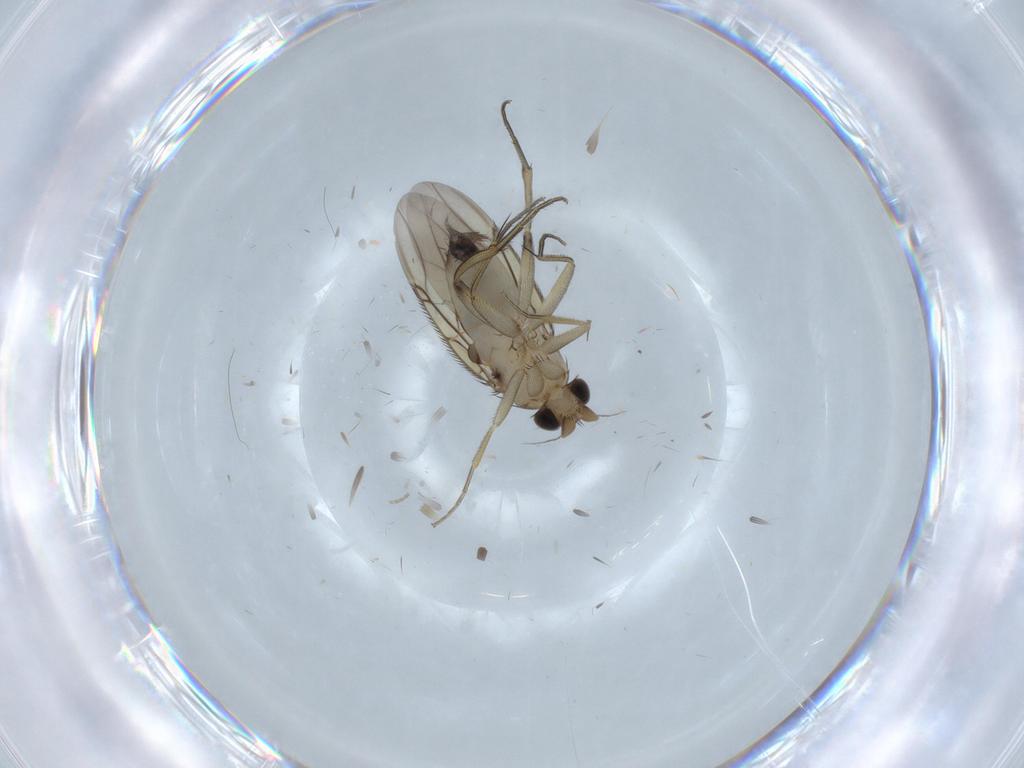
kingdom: Animalia
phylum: Arthropoda
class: Insecta
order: Diptera
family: Phoridae
